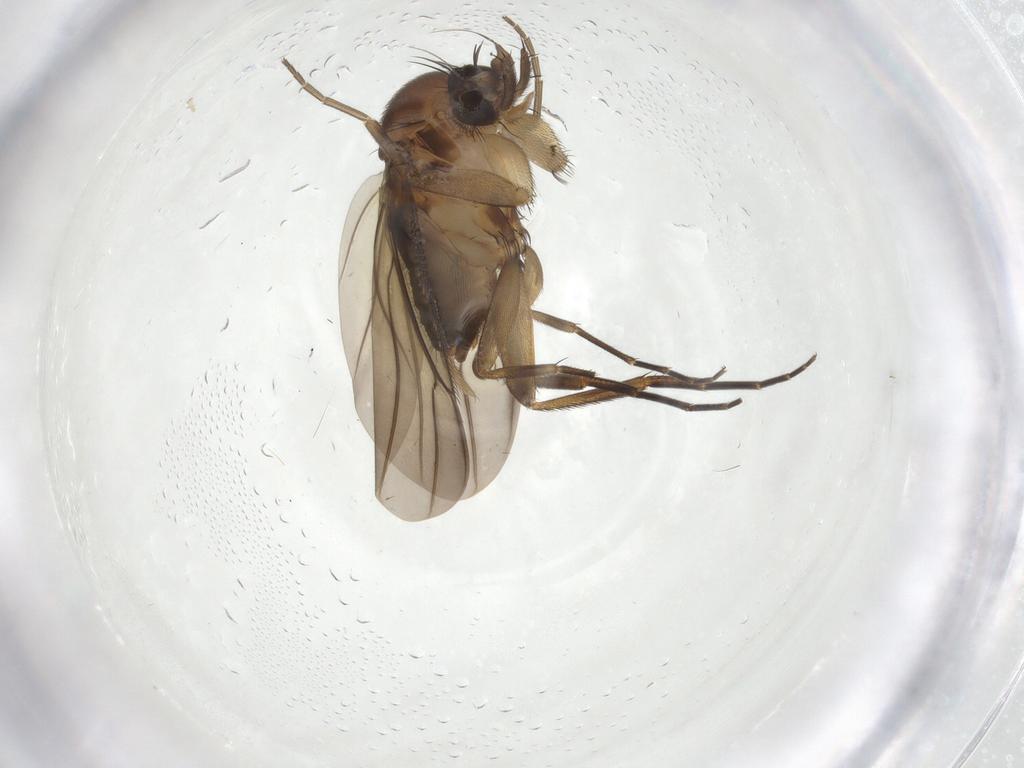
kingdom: Animalia
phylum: Arthropoda
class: Insecta
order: Diptera
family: Phoridae
